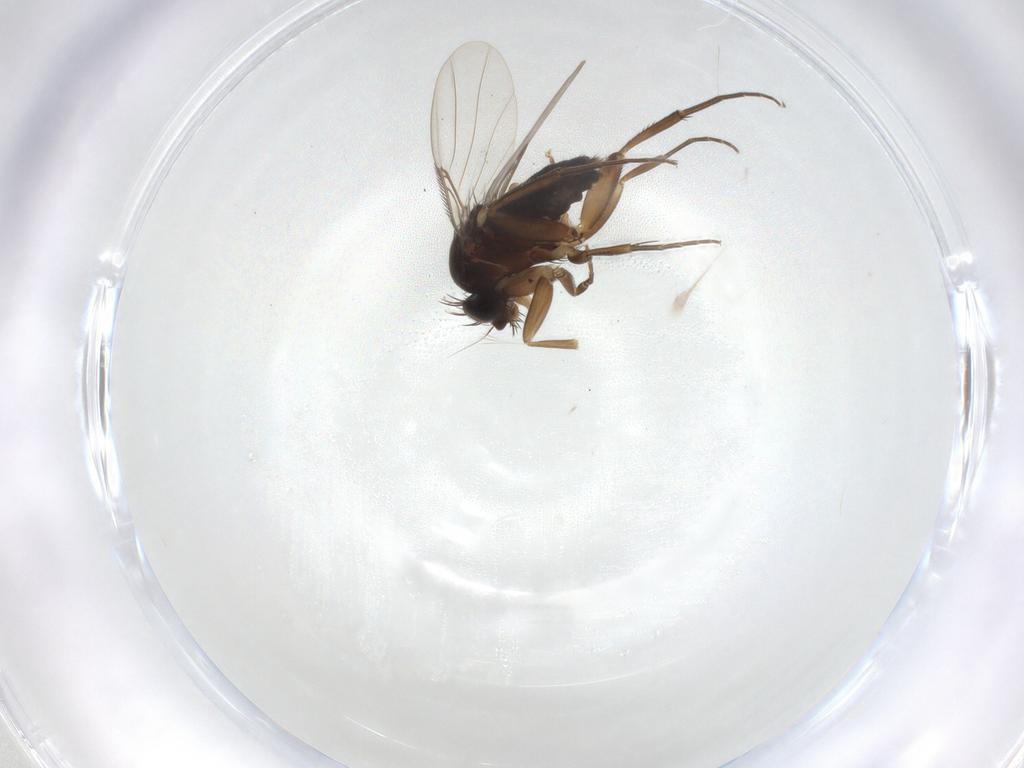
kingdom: Animalia
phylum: Arthropoda
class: Insecta
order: Diptera
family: Phoridae
